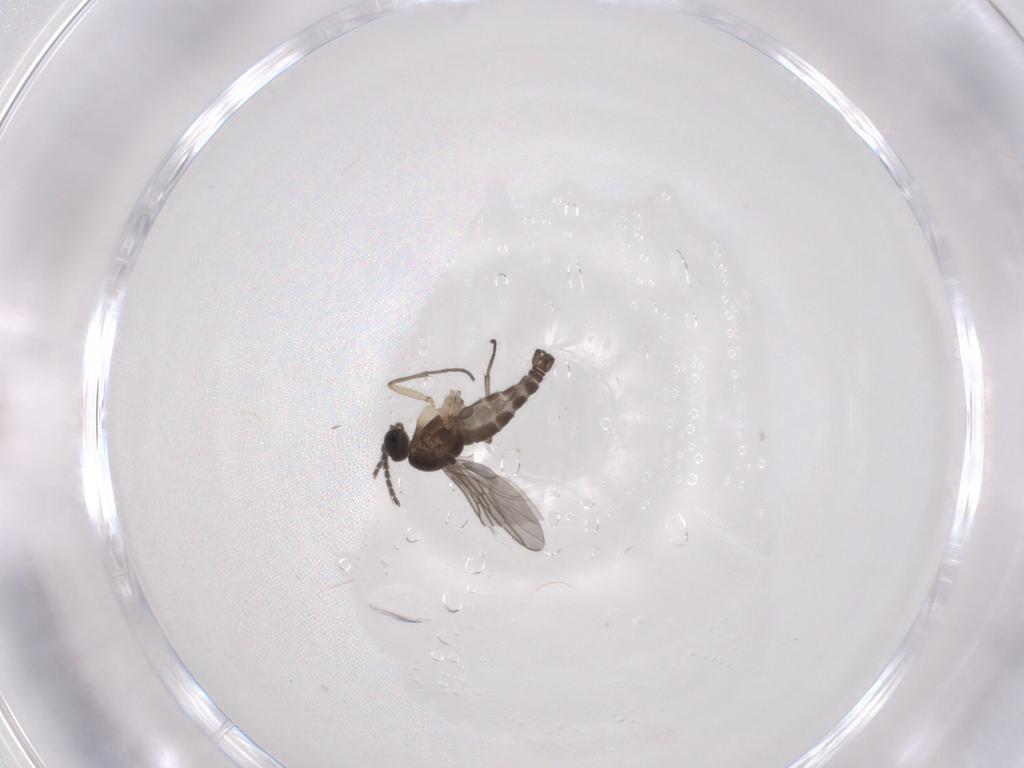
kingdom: Animalia
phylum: Arthropoda
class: Insecta
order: Diptera
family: Sciaridae
